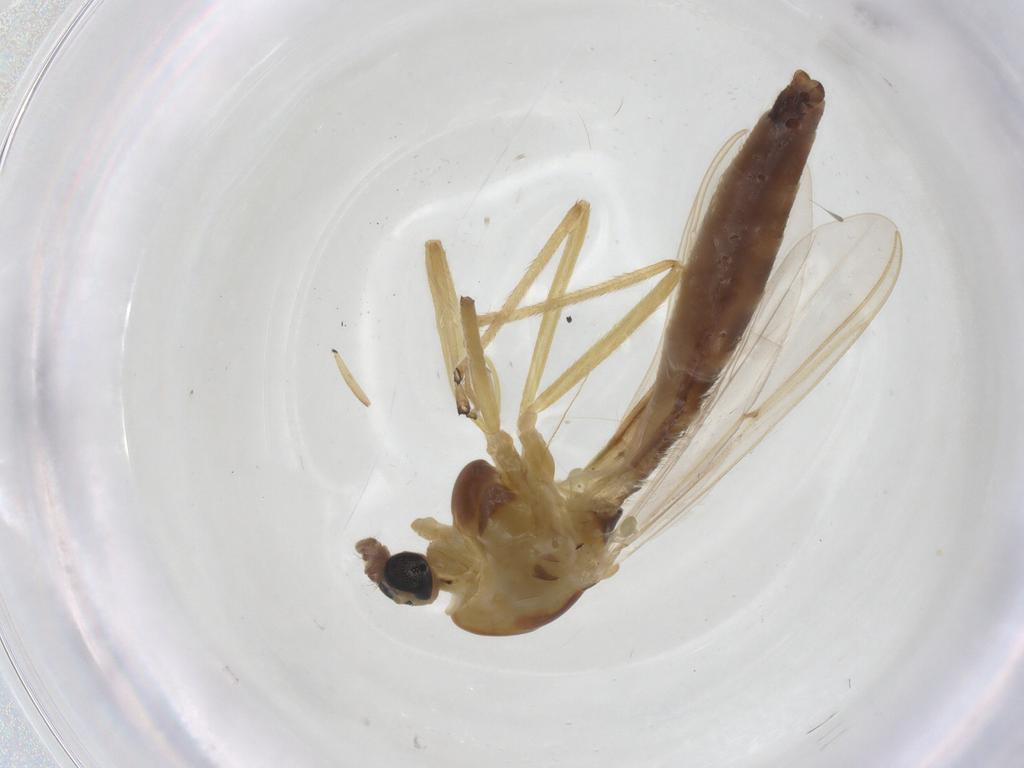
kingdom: Animalia
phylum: Arthropoda
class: Insecta
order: Diptera
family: Chironomidae
